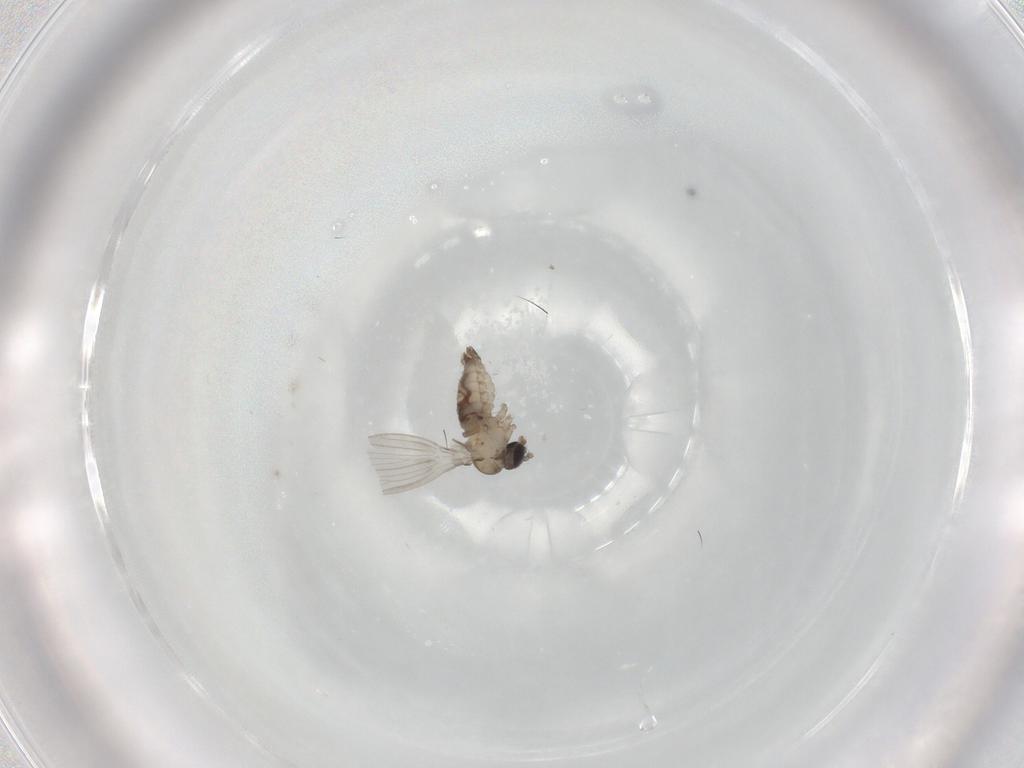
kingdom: Animalia
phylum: Arthropoda
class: Insecta
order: Diptera
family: Psychodidae
